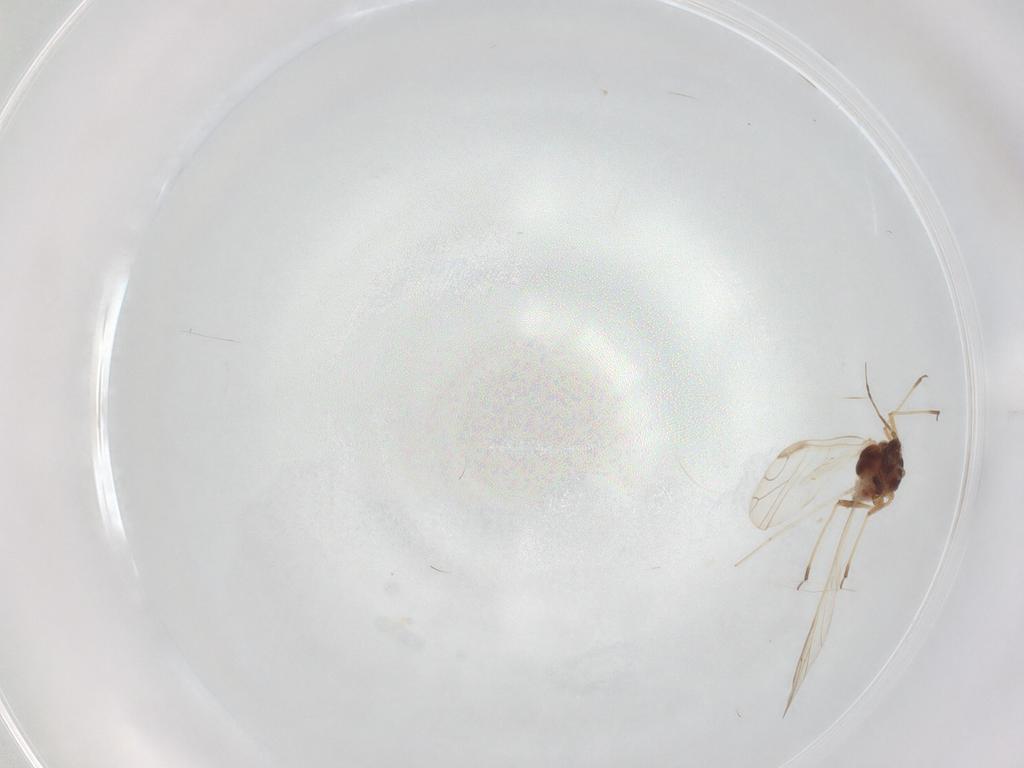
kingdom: Animalia
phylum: Arthropoda
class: Insecta
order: Hemiptera
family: Aphididae
